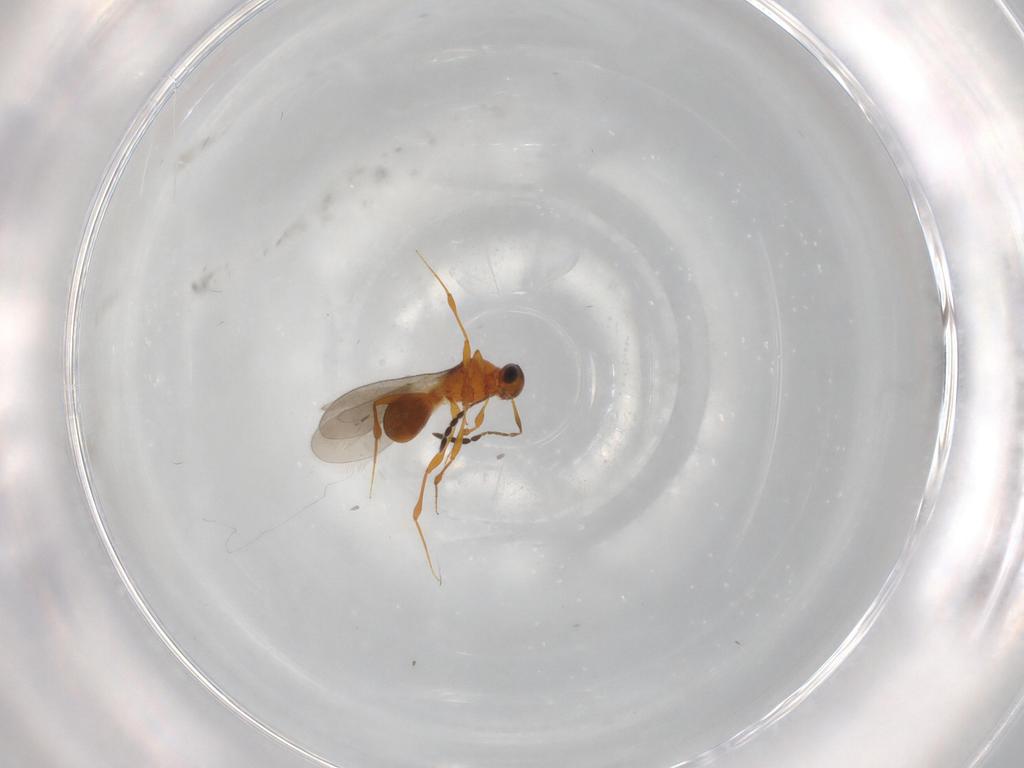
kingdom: Animalia
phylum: Arthropoda
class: Insecta
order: Hymenoptera
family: Platygastridae
